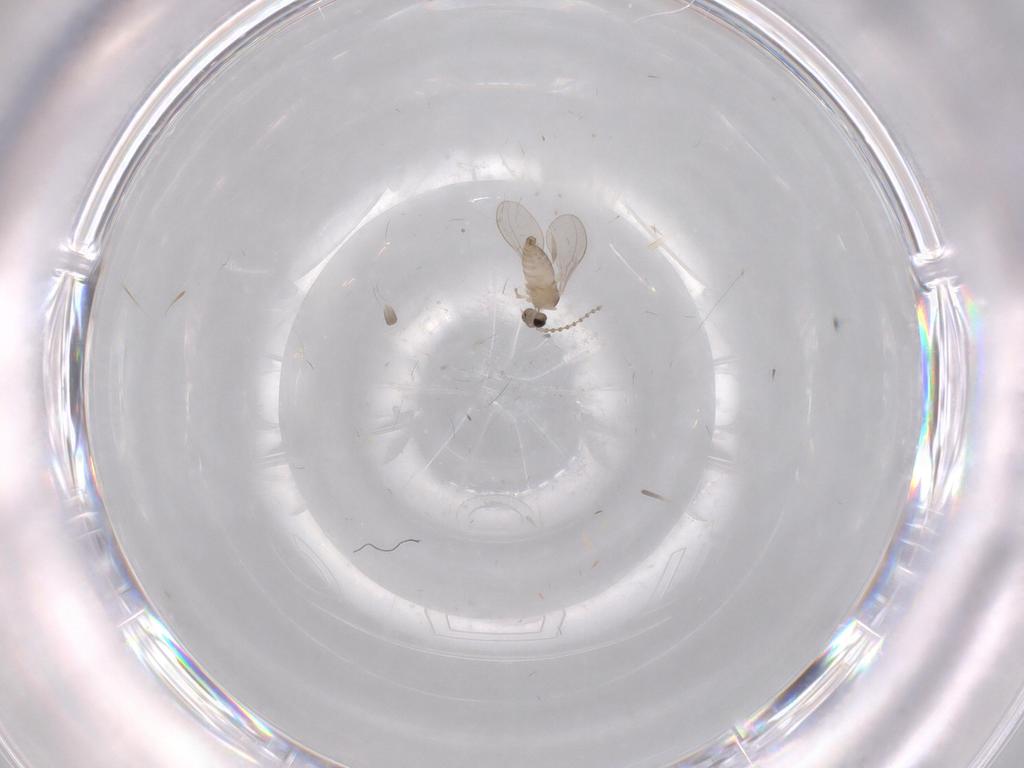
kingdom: Animalia
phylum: Arthropoda
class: Insecta
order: Diptera
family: Cecidomyiidae
